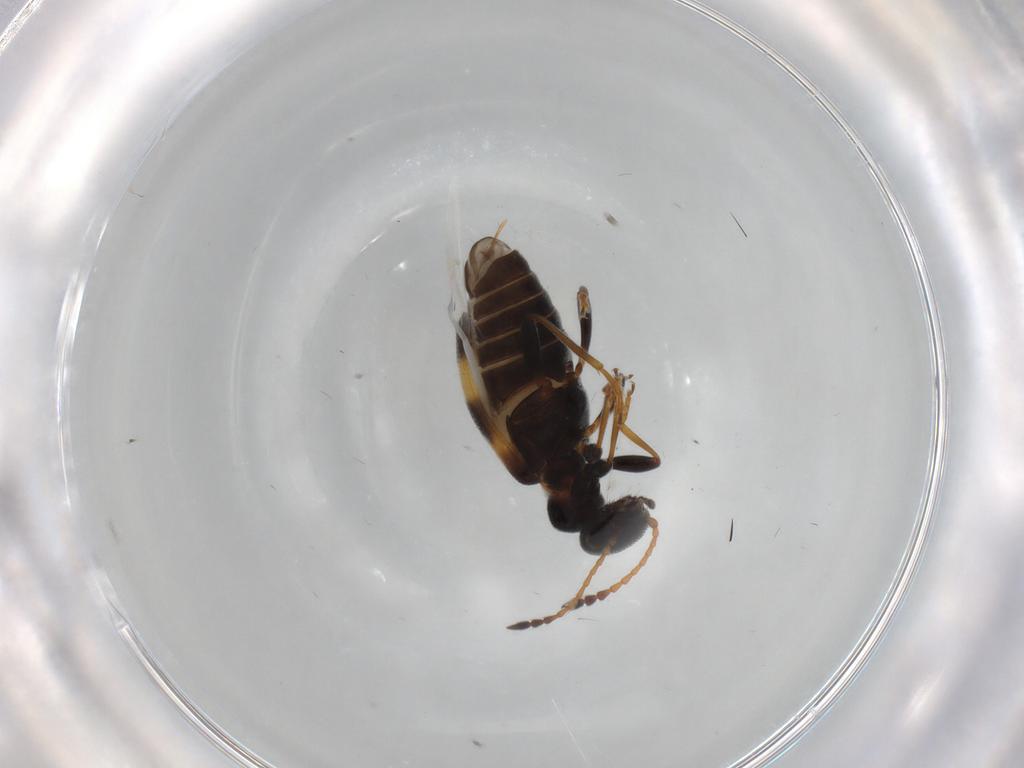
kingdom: Animalia
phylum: Arthropoda
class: Insecta
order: Coleoptera
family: Anthicidae
